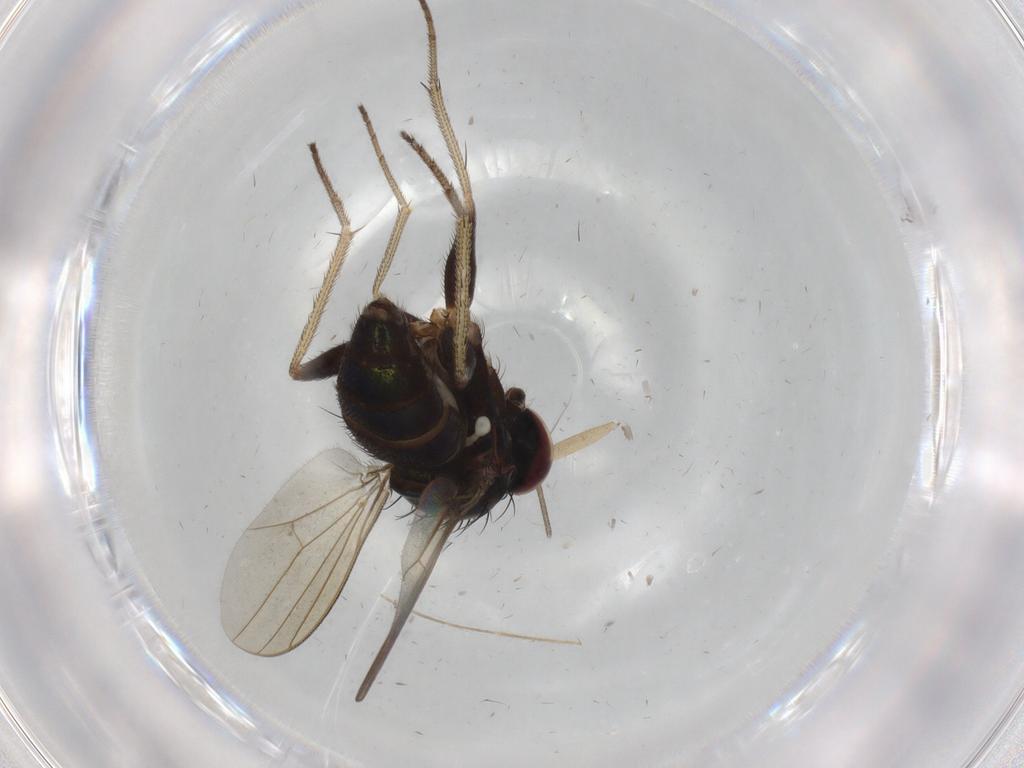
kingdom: Animalia
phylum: Arthropoda
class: Insecta
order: Diptera
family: Dolichopodidae
